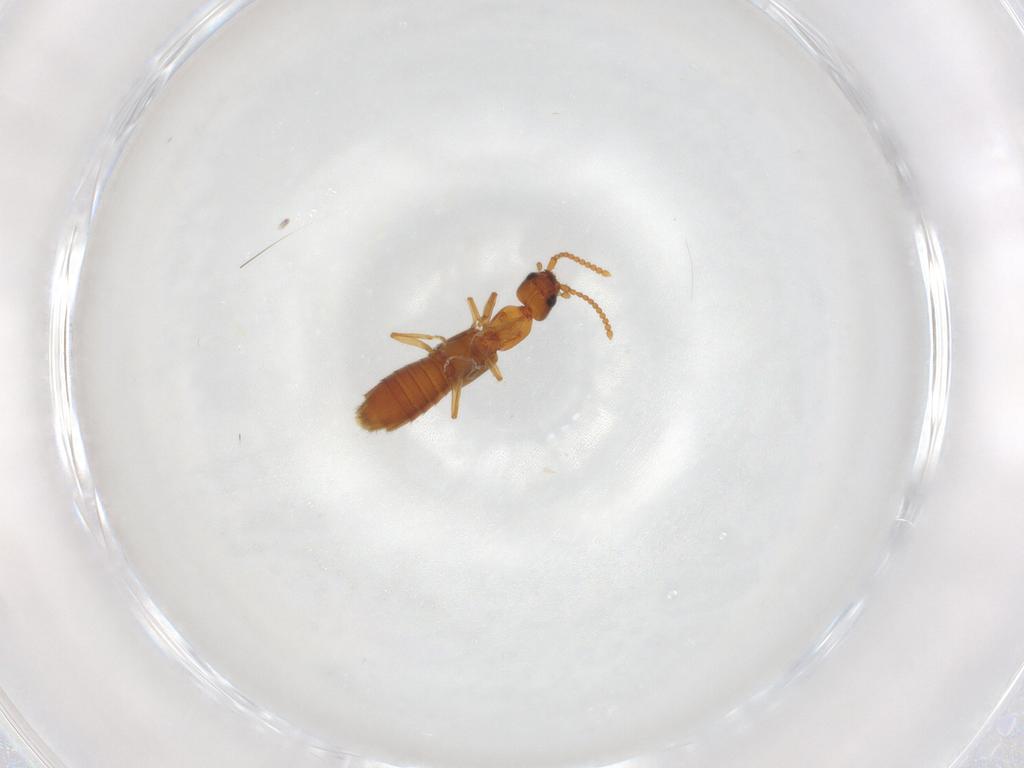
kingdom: Animalia
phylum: Arthropoda
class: Insecta
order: Coleoptera
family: Staphylinidae
